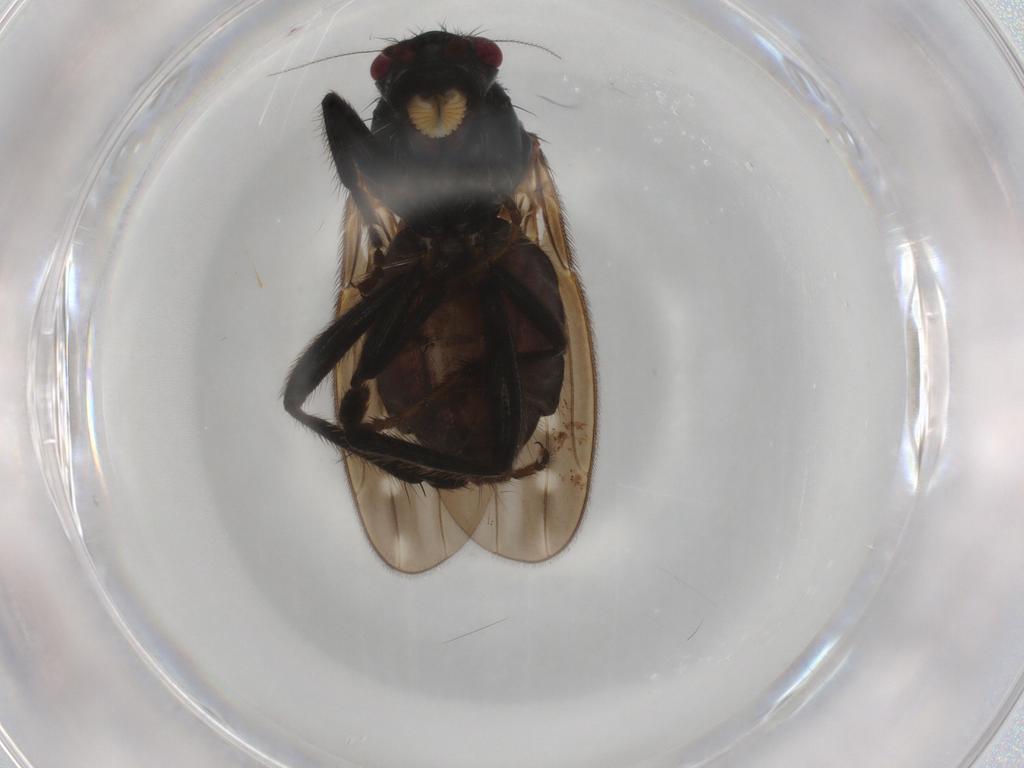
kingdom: Animalia
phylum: Arthropoda
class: Insecta
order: Diptera
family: Sphaeroceridae
